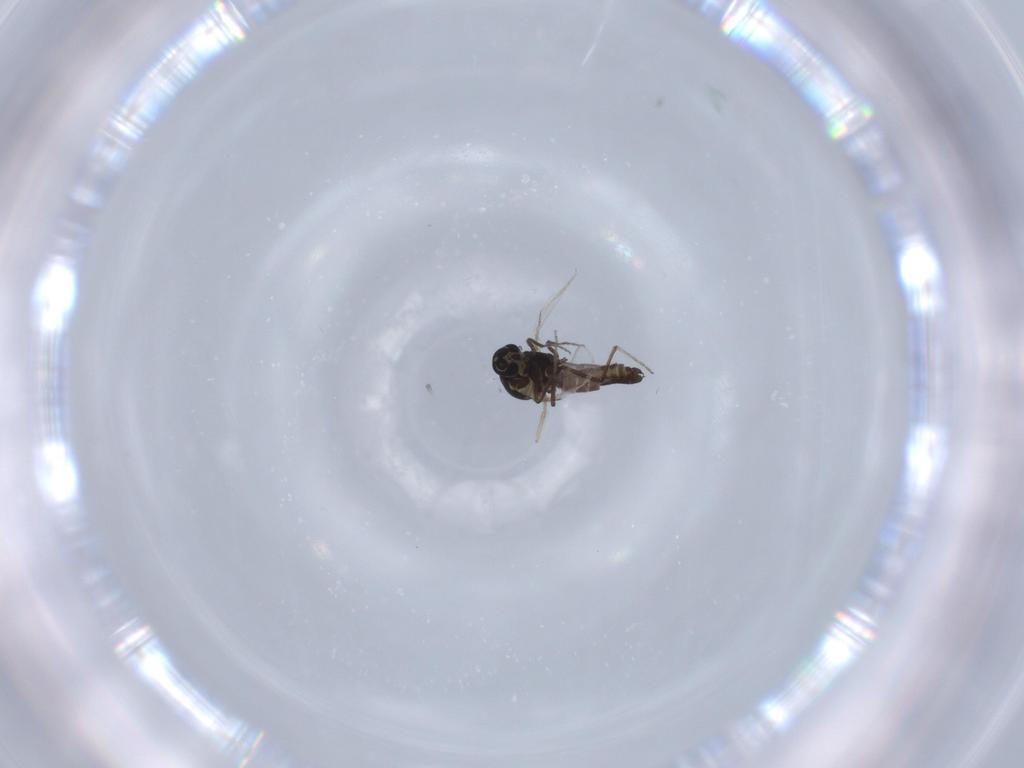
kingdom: Animalia
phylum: Arthropoda
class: Insecta
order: Diptera
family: Ceratopogonidae
